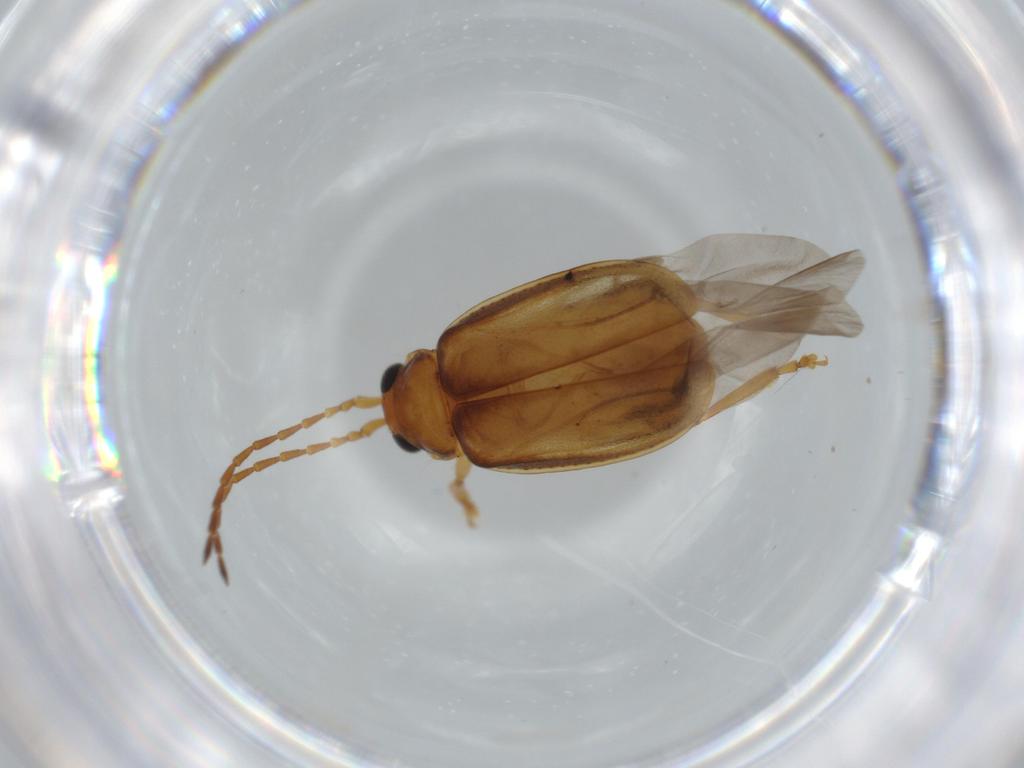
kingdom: Animalia
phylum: Arthropoda
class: Insecta
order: Coleoptera
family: Chrysomelidae
